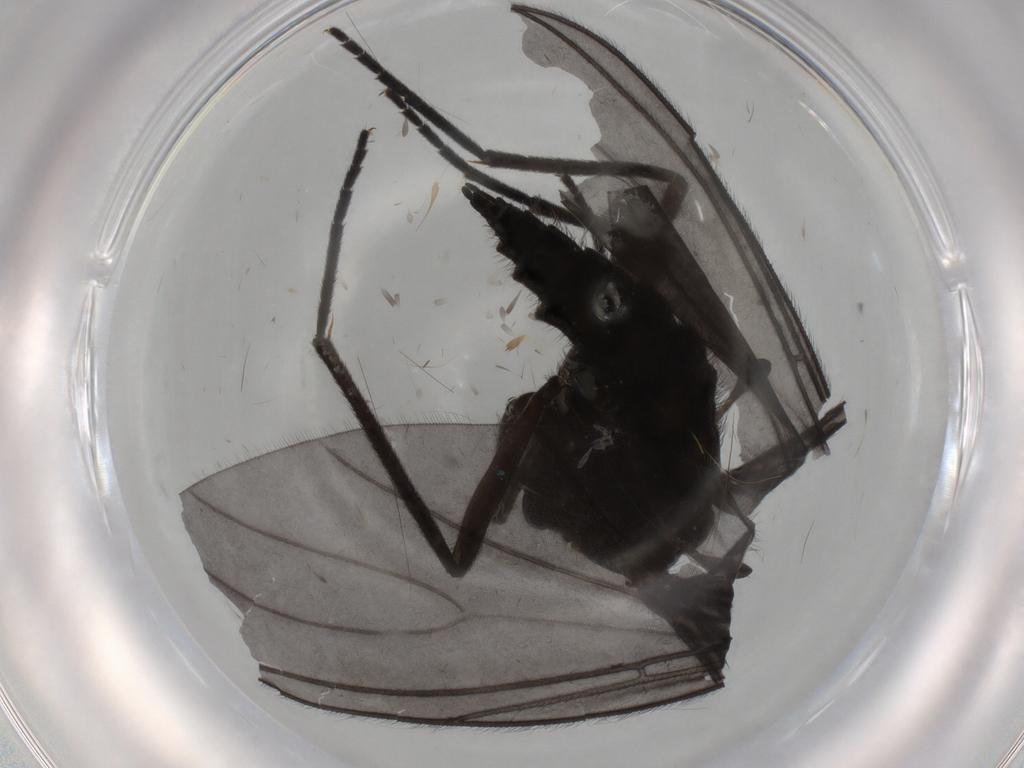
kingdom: Animalia
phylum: Arthropoda
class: Insecta
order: Diptera
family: Sciaridae
